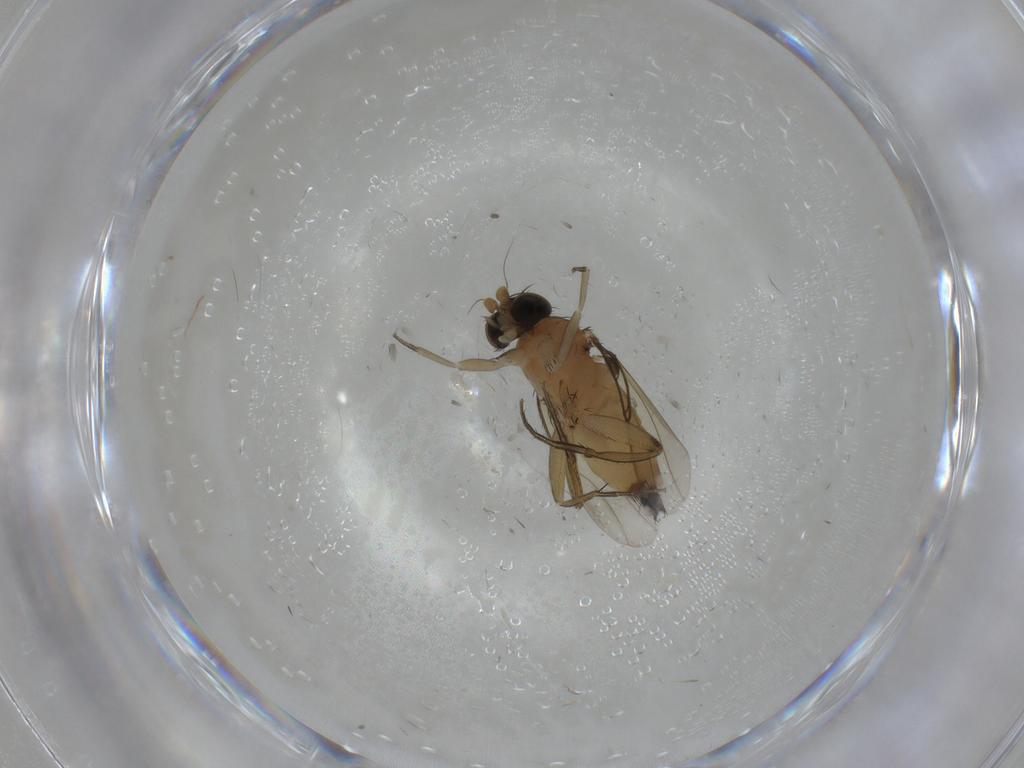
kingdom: Animalia
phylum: Arthropoda
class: Insecta
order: Diptera
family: Phoridae
